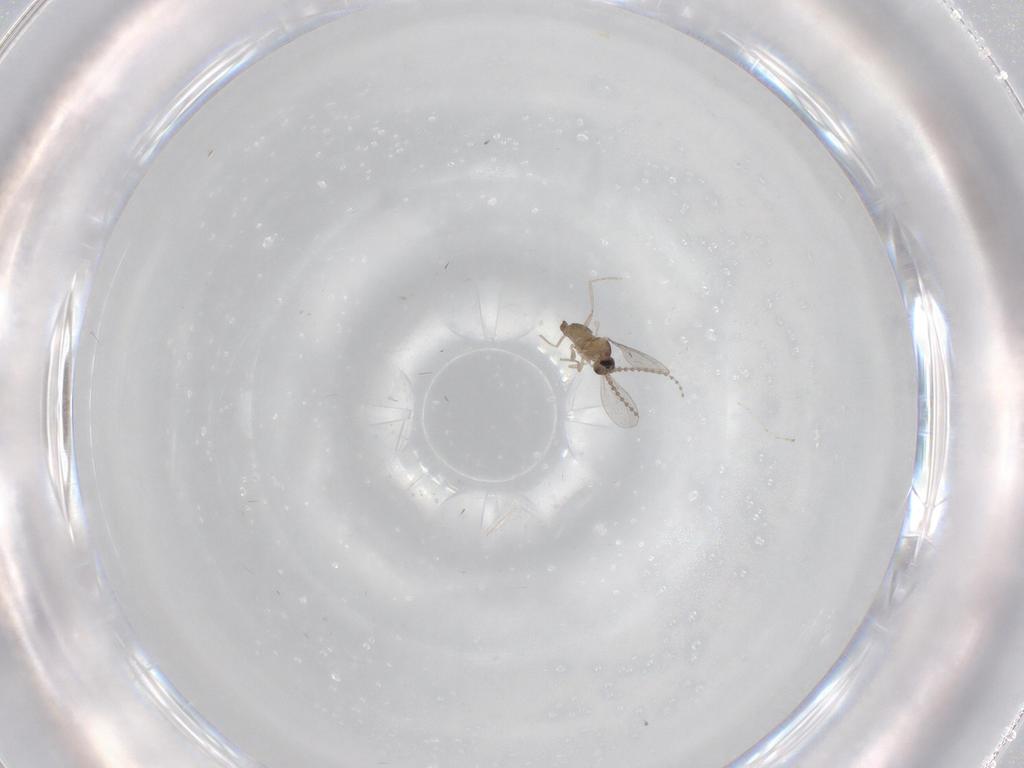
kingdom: Animalia
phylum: Arthropoda
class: Insecta
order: Diptera
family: Cecidomyiidae
